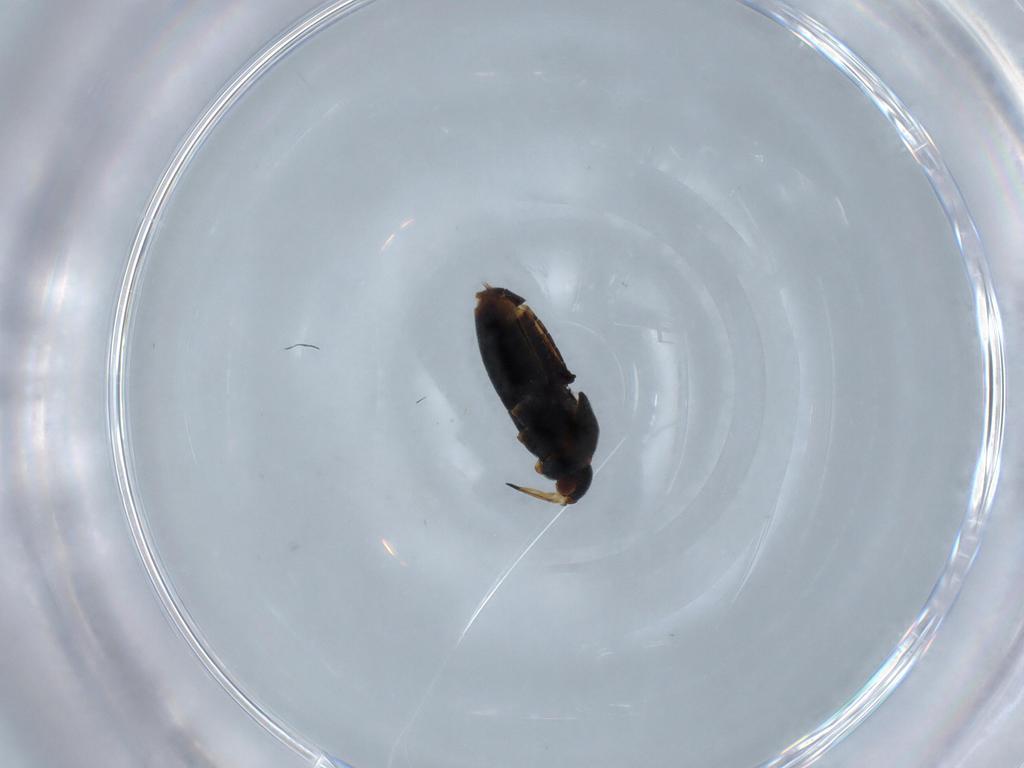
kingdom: Animalia
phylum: Arthropoda
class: Insecta
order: Hemiptera
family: Veliidae
